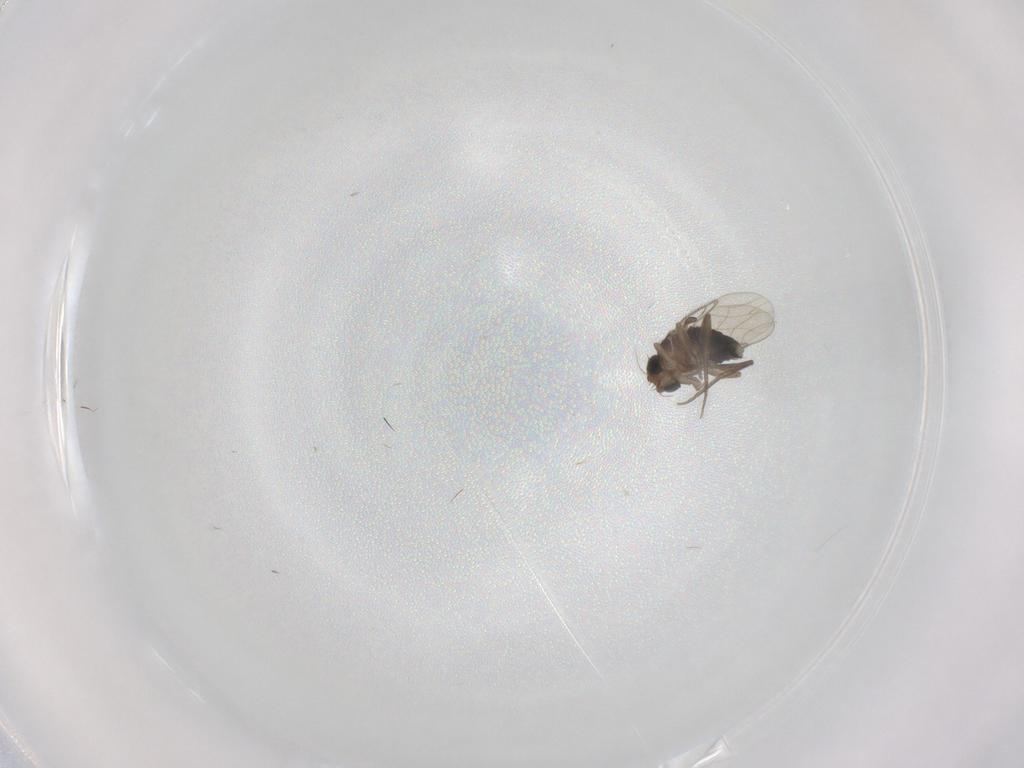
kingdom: Animalia
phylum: Arthropoda
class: Insecta
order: Diptera
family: Phoridae
